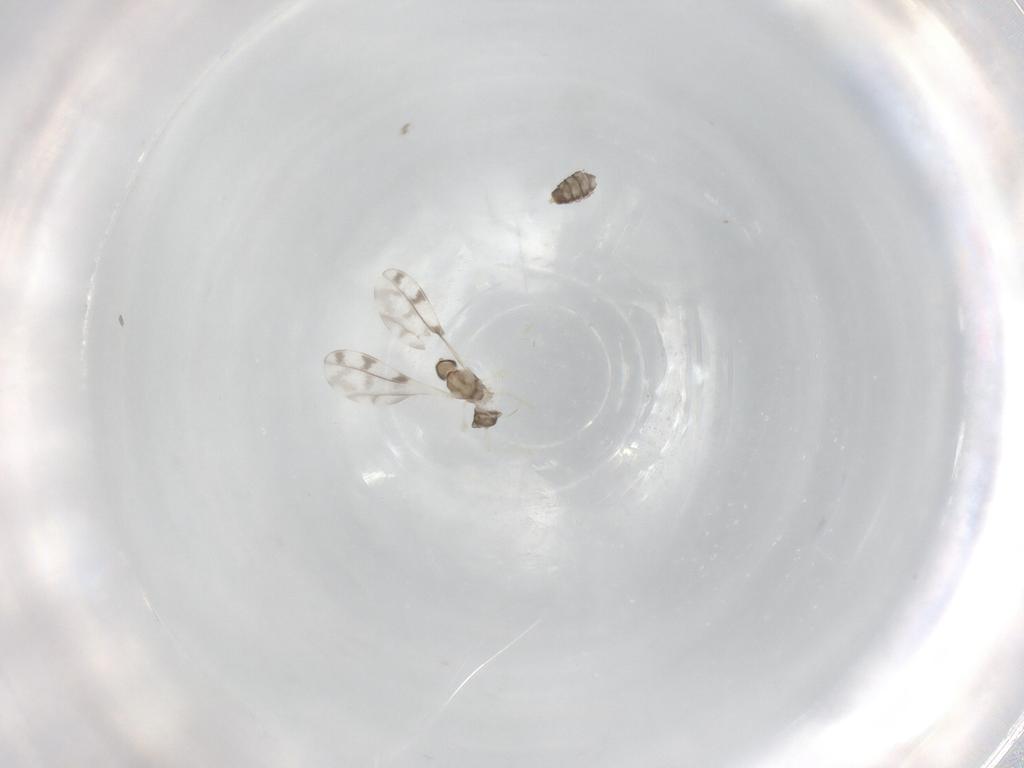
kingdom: Animalia
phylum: Arthropoda
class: Insecta
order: Diptera
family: Cecidomyiidae
